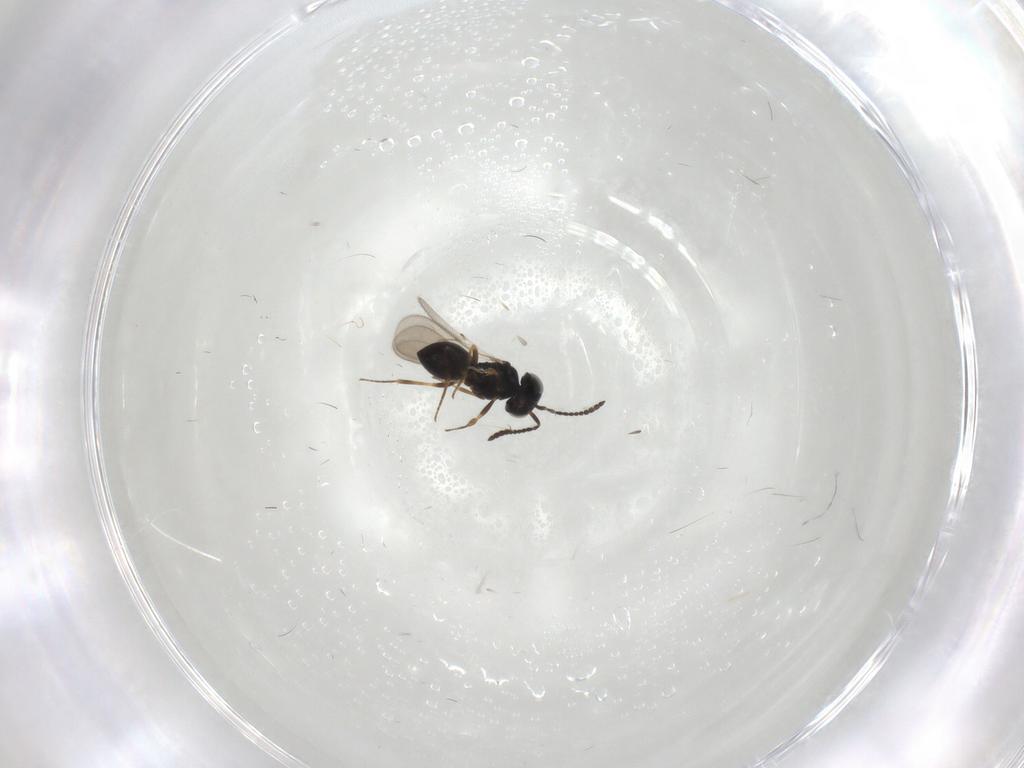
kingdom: Animalia
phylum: Arthropoda
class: Insecta
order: Hymenoptera
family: Scelionidae
